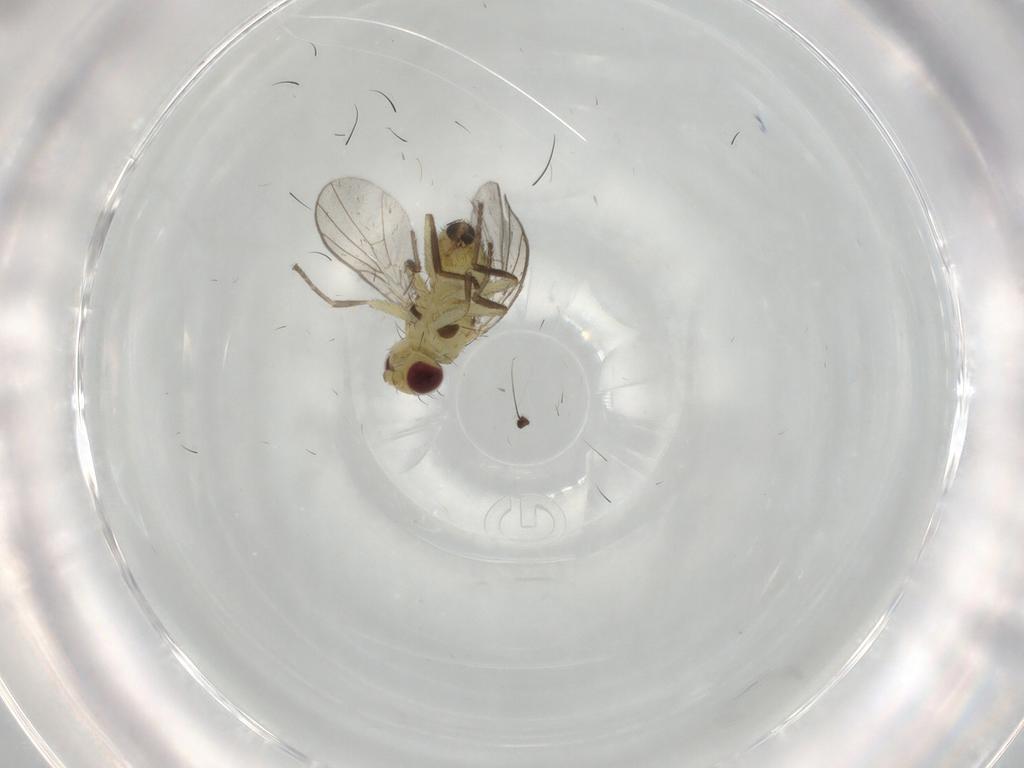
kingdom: Animalia
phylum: Arthropoda
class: Insecta
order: Diptera
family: Agromyzidae
